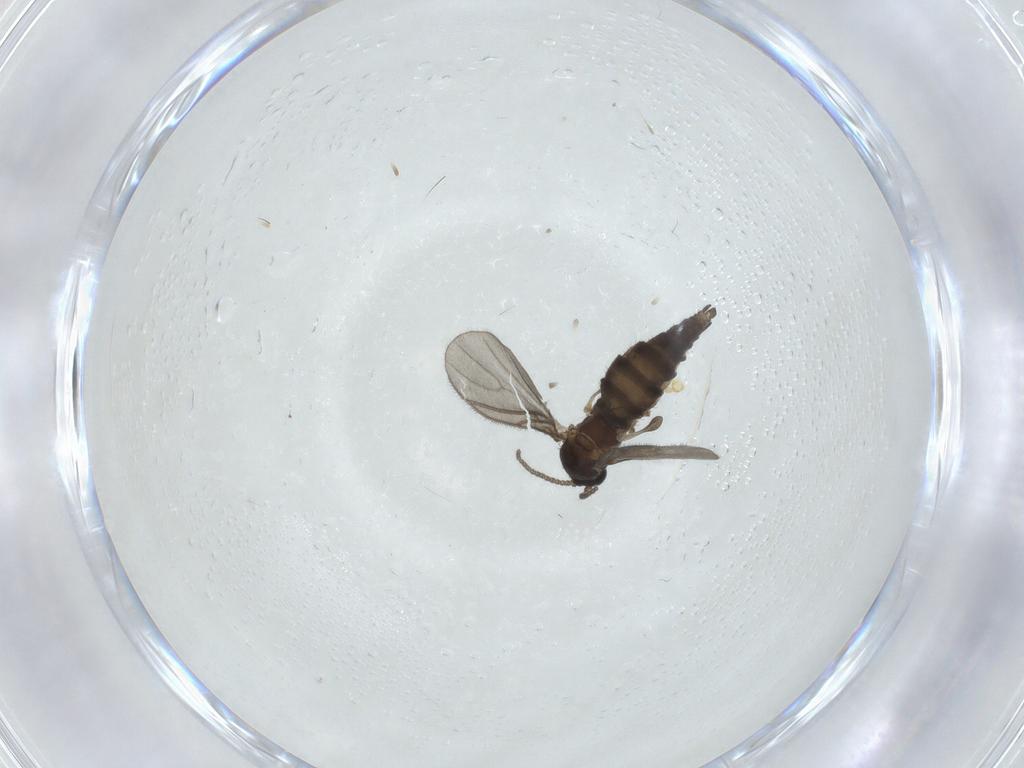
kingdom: Animalia
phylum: Arthropoda
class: Insecta
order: Diptera
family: Sciaridae
